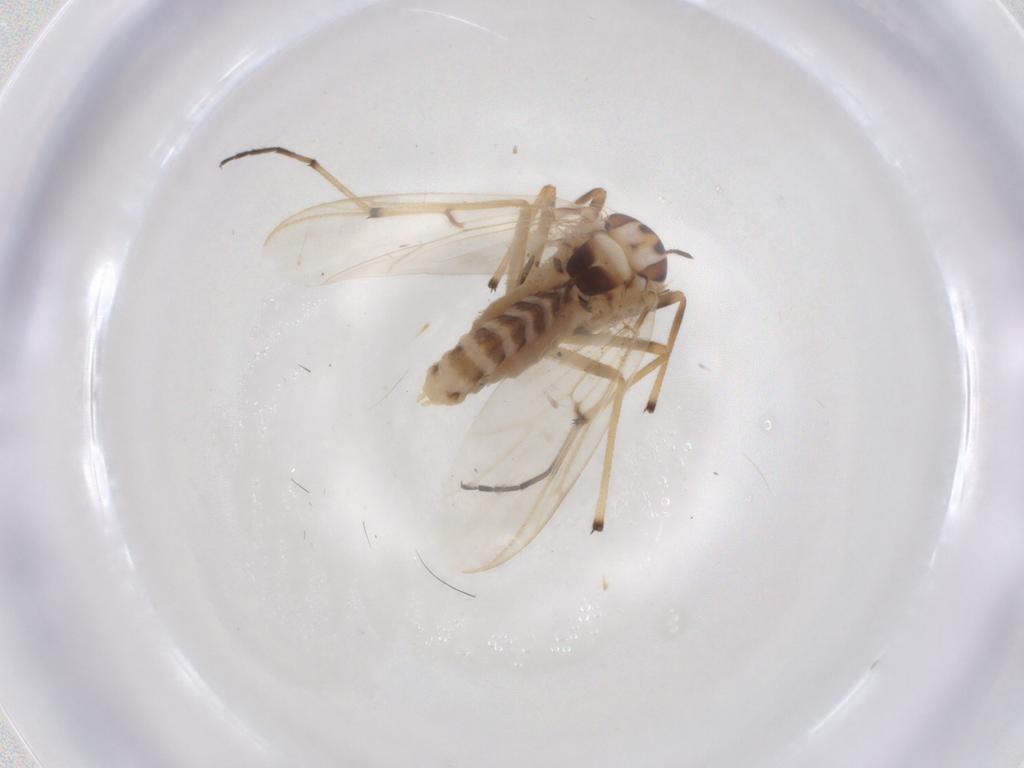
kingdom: Animalia
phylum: Arthropoda
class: Insecta
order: Diptera
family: Chironomidae
